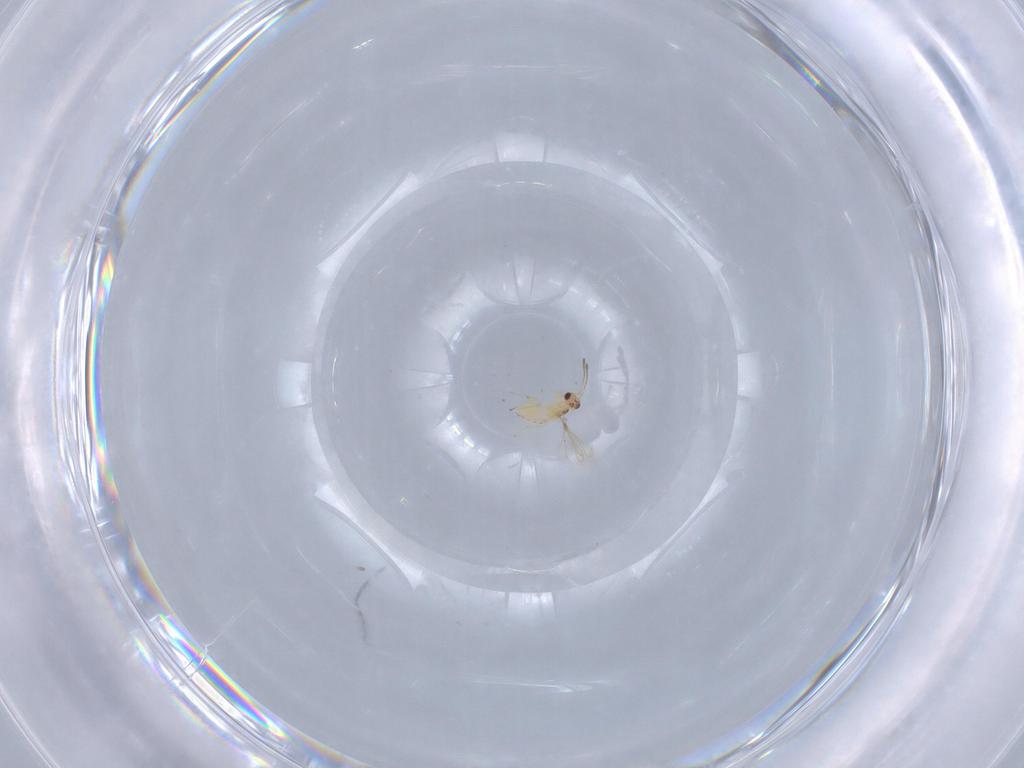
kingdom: Animalia
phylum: Arthropoda
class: Insecta
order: Hymenoptera
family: Mymaridae
